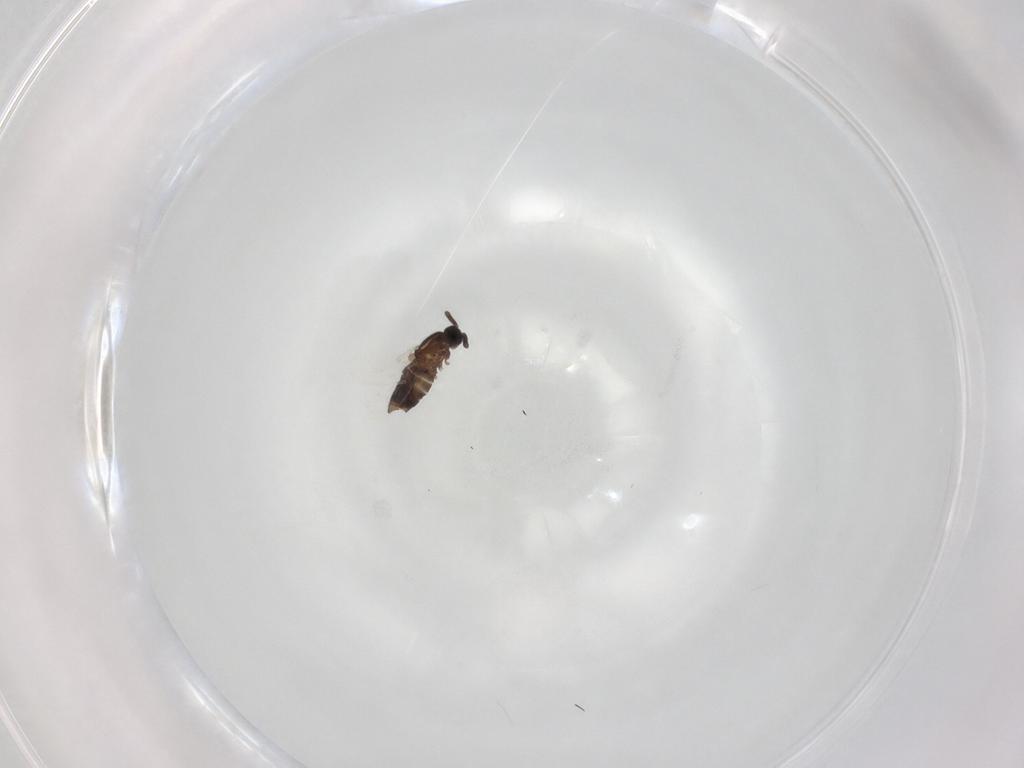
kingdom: Animalia
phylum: Arthropoda
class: Insecta
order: Diptera
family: Scatopsidae
